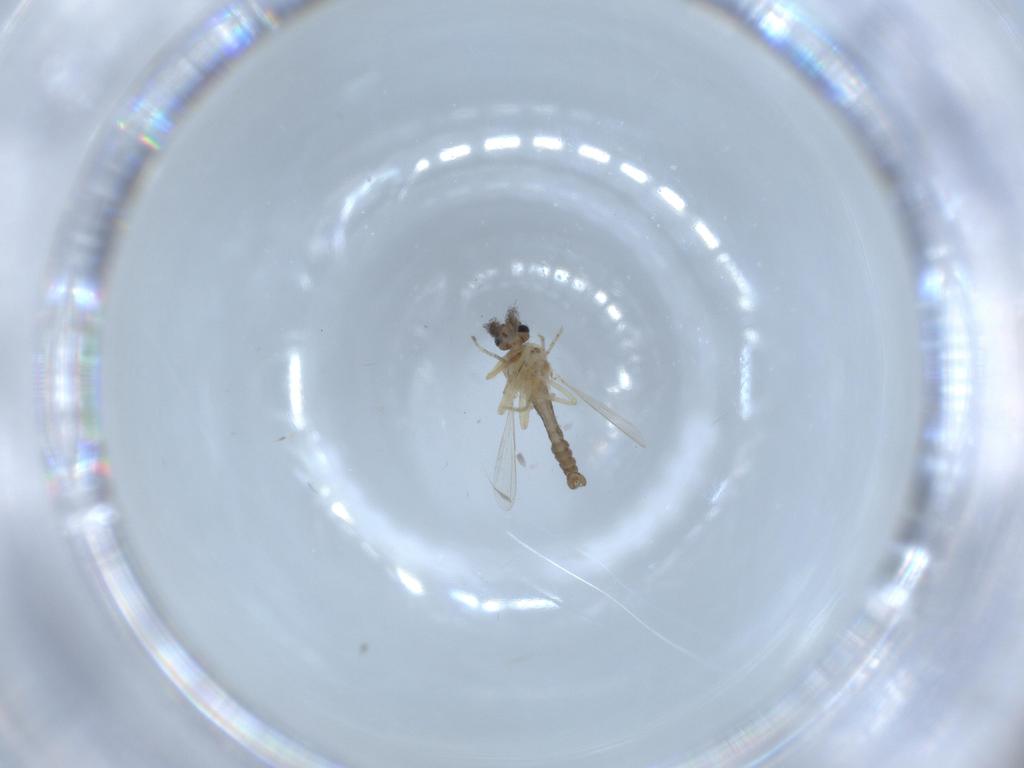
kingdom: Animalia
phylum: Arthropoda
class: Insecta
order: Diptera
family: Ceratopogonidae
